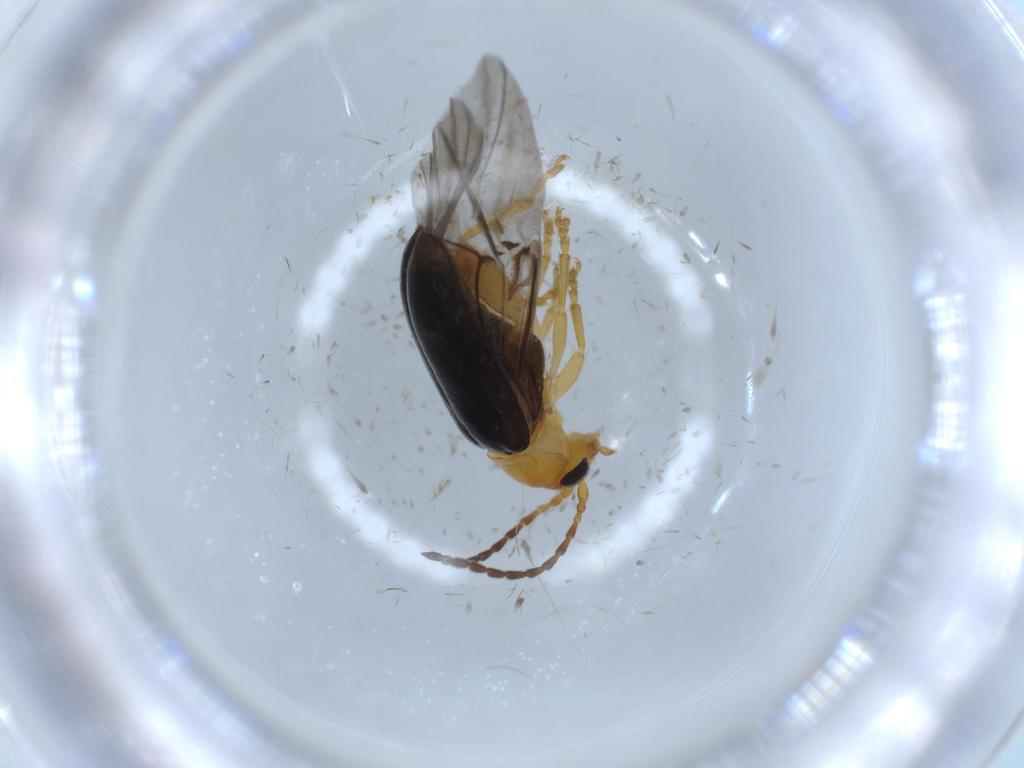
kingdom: Animalia
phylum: Arthropoda
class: Insecta
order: Coleoptera
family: Chrysomelidae
